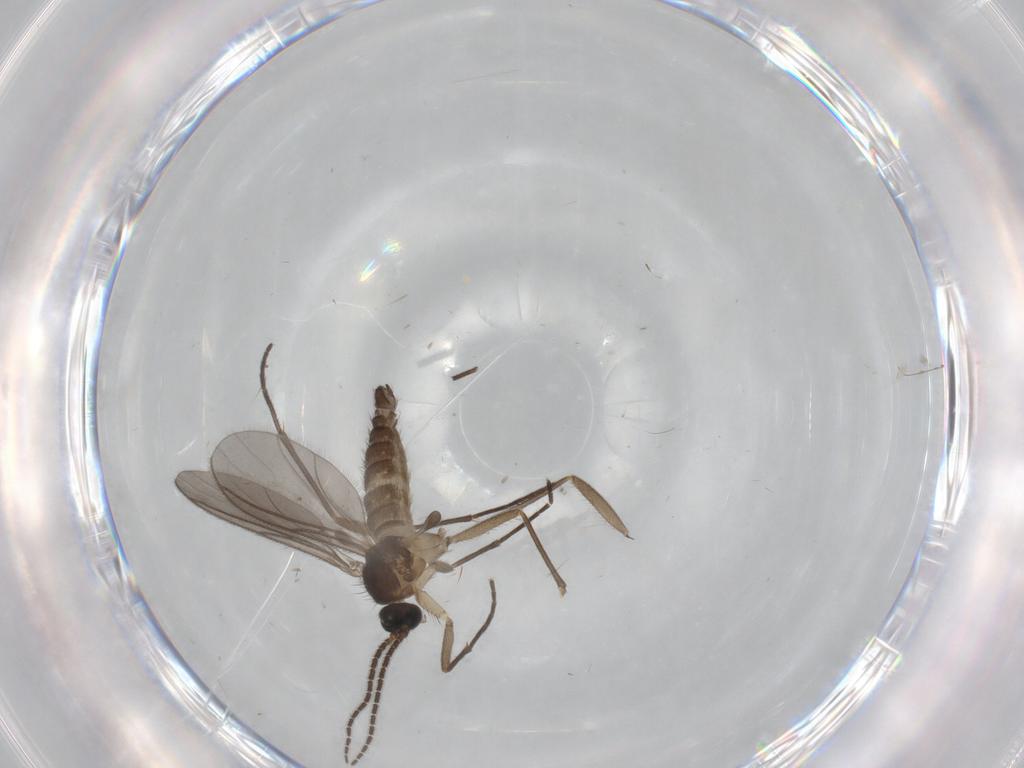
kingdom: Animalia
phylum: Arthropoda
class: Insecta
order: Diptera
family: Sciaridae
